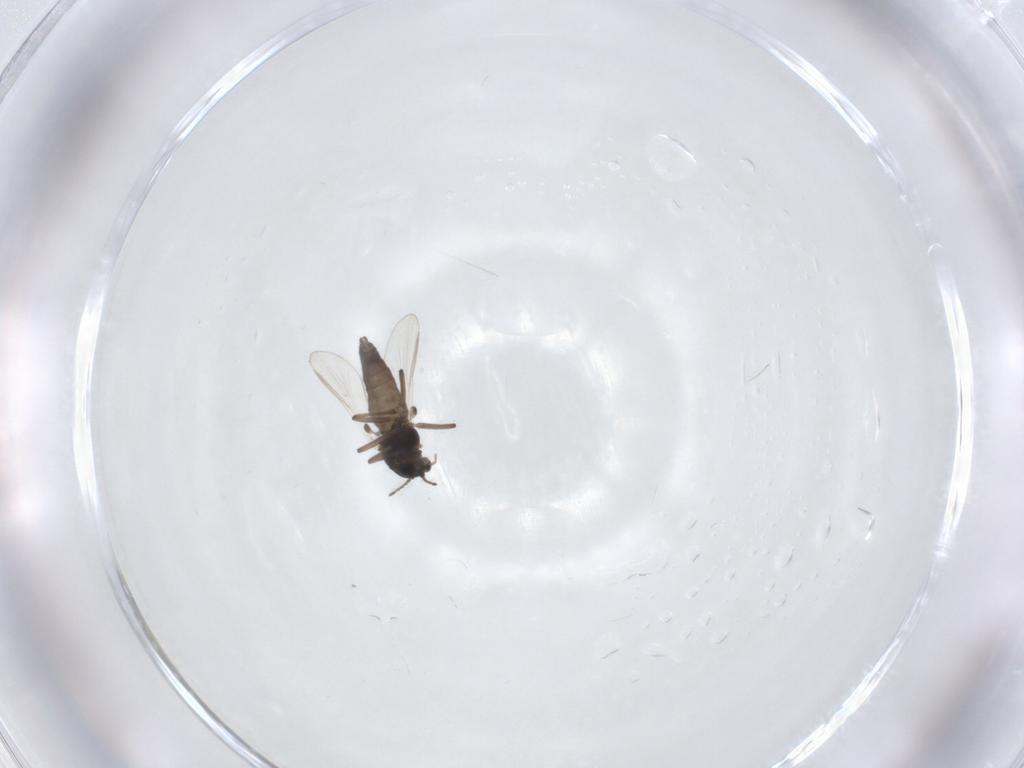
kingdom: Animalia
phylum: Arthropoda
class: Insecta
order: Diptera
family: Chironomidae
